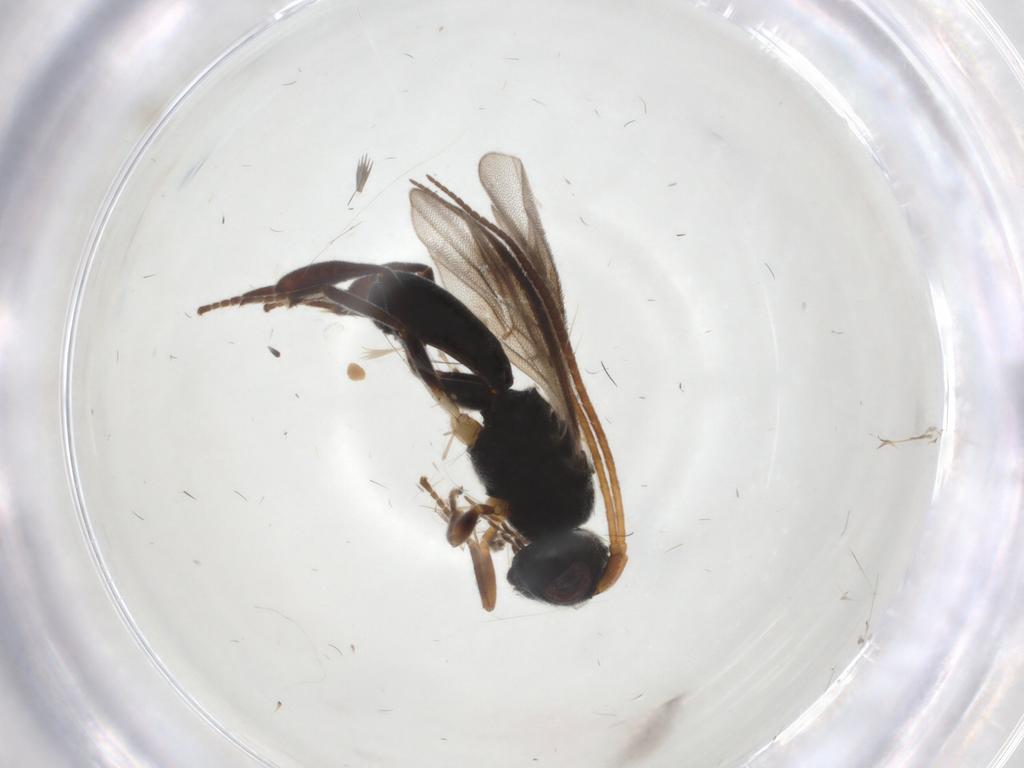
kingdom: Animalia
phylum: Arthropoda
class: Insecta
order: Hymenoptera
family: Braconidae
